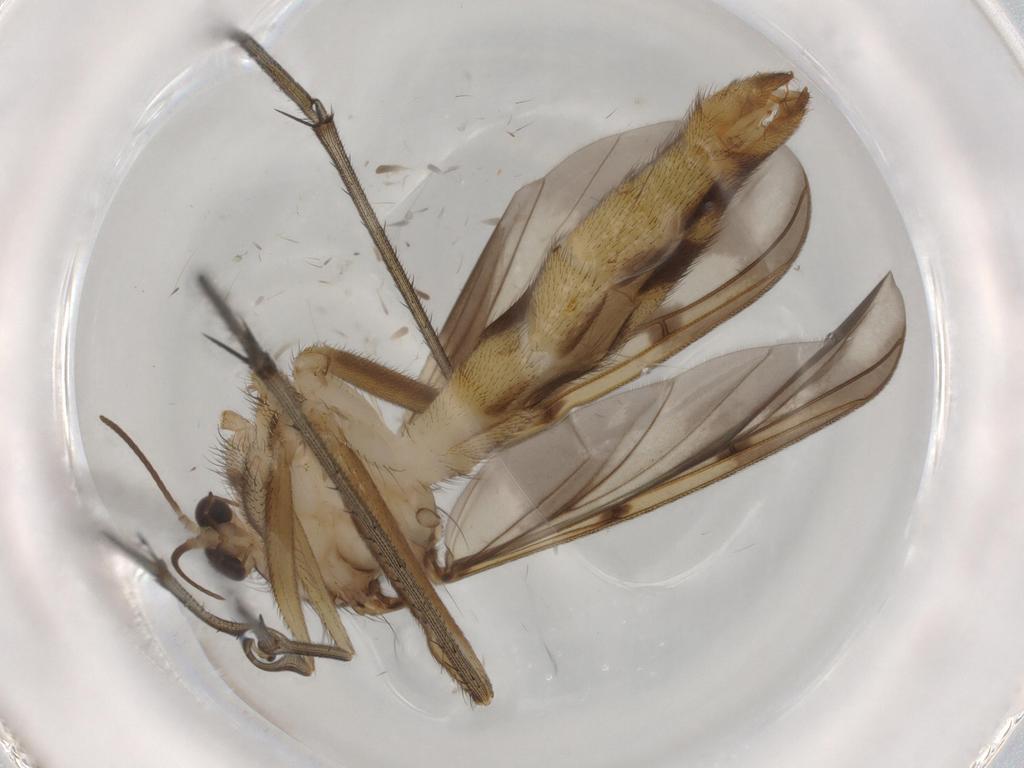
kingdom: Animalia
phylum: Arthropoda
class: Insecta
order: Diptera
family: Mycetophilidae
